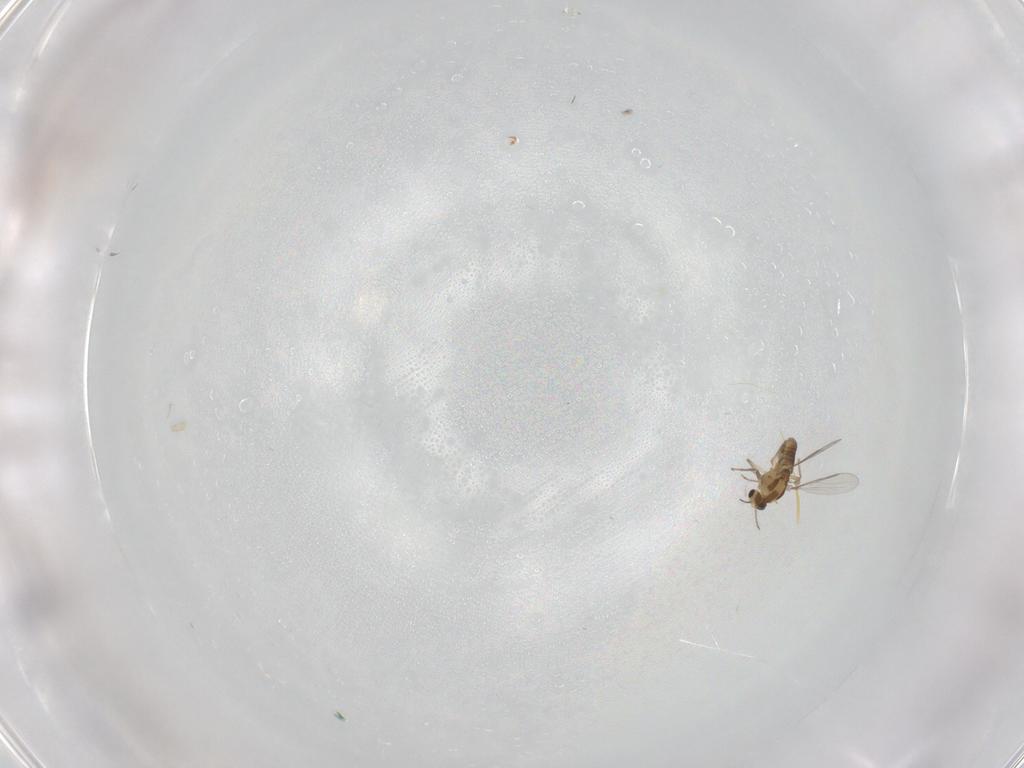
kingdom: Animalia
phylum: Arthropoda
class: Insecta
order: Diptera
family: Chironomidae
